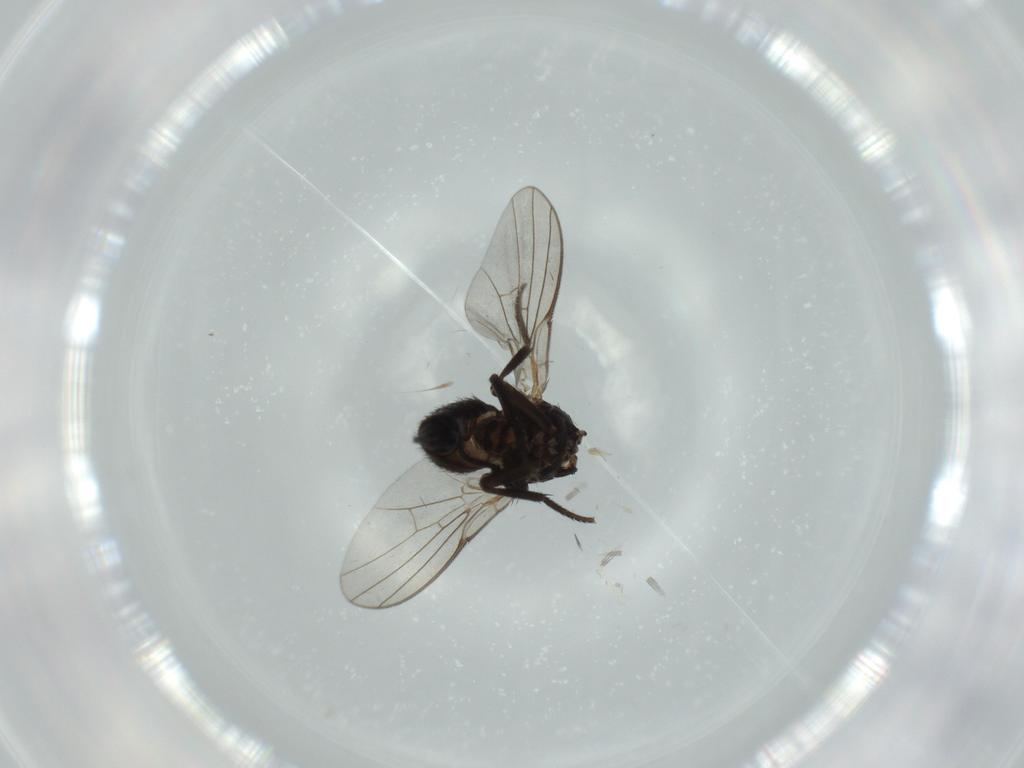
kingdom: Animalia
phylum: Arthropoda
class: Insecta
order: Diptera
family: Agromyzidae
